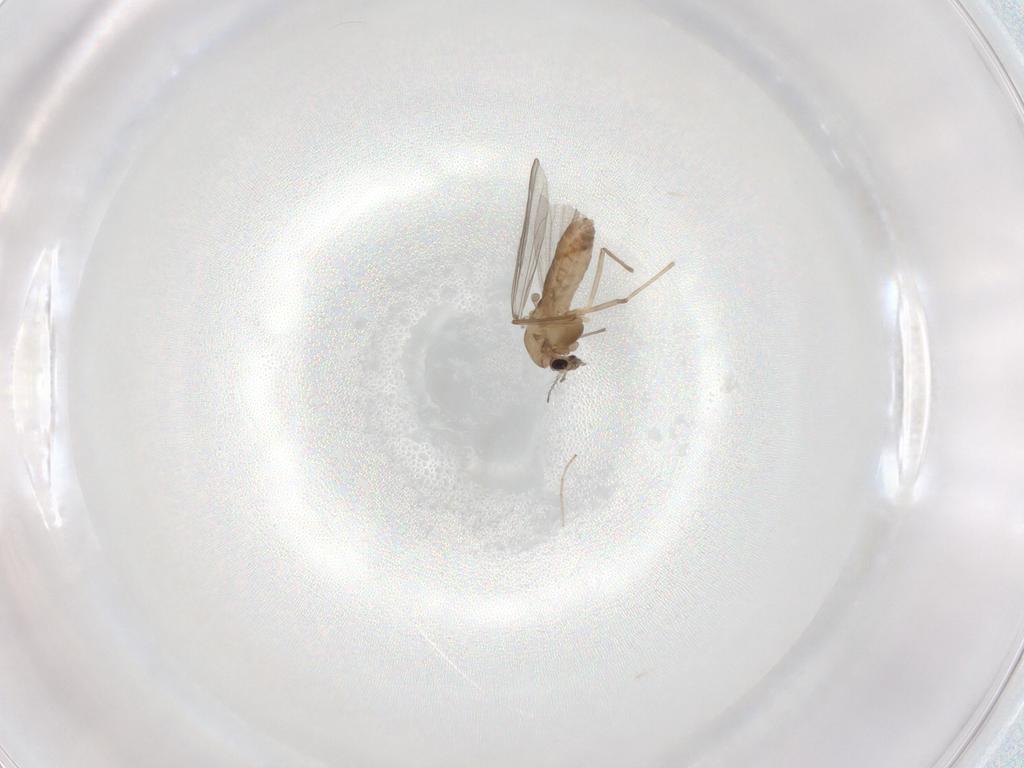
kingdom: Animalia
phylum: Arthropoda
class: Insecta
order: Diptera
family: Chironomidae
